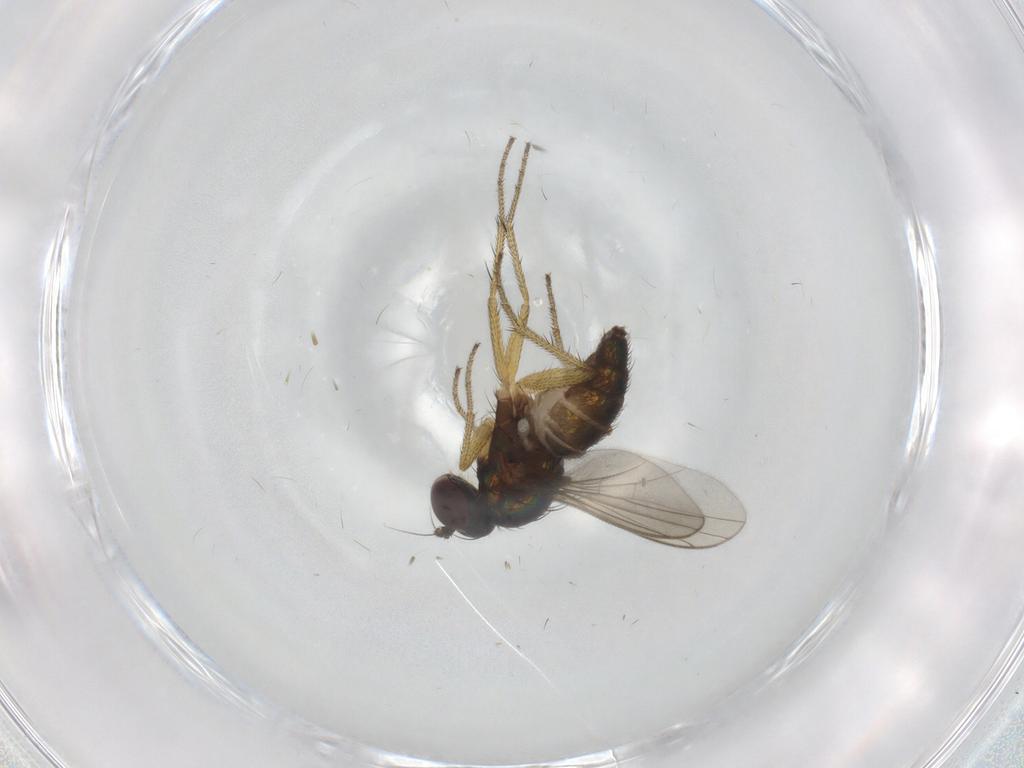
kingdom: Animalia
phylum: Arthropoda
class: Insecta
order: Diptera
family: Dolichopodidae
